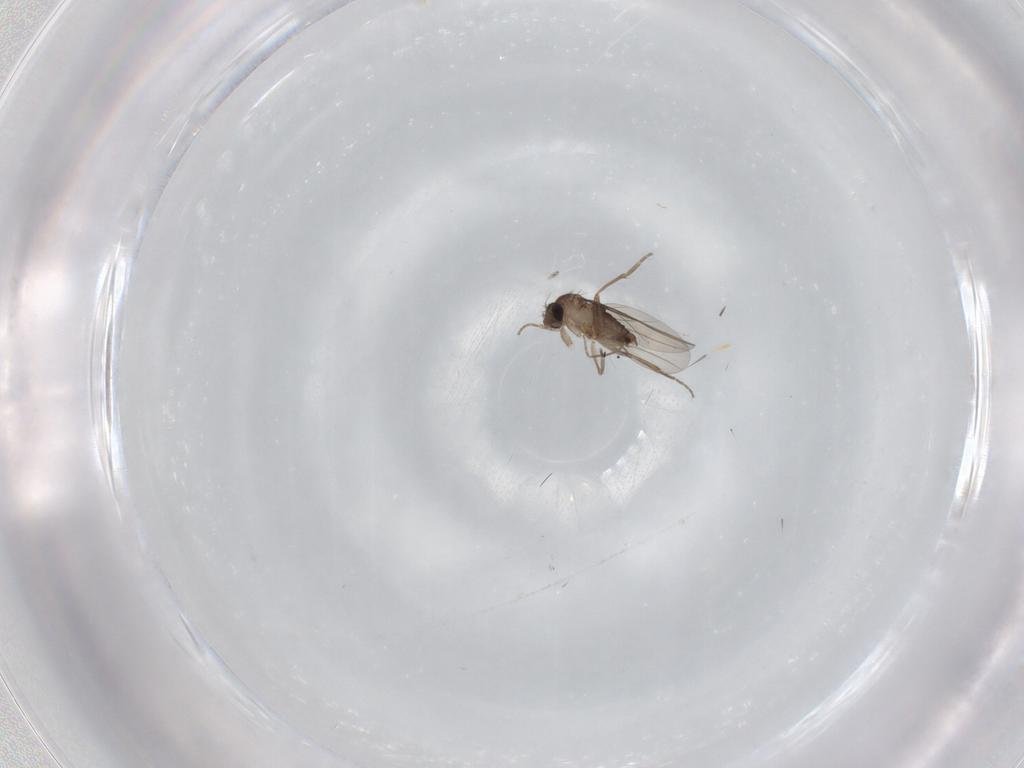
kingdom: Animalia
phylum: Arthropoda
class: Insecta
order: Diptera
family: Phoridae
